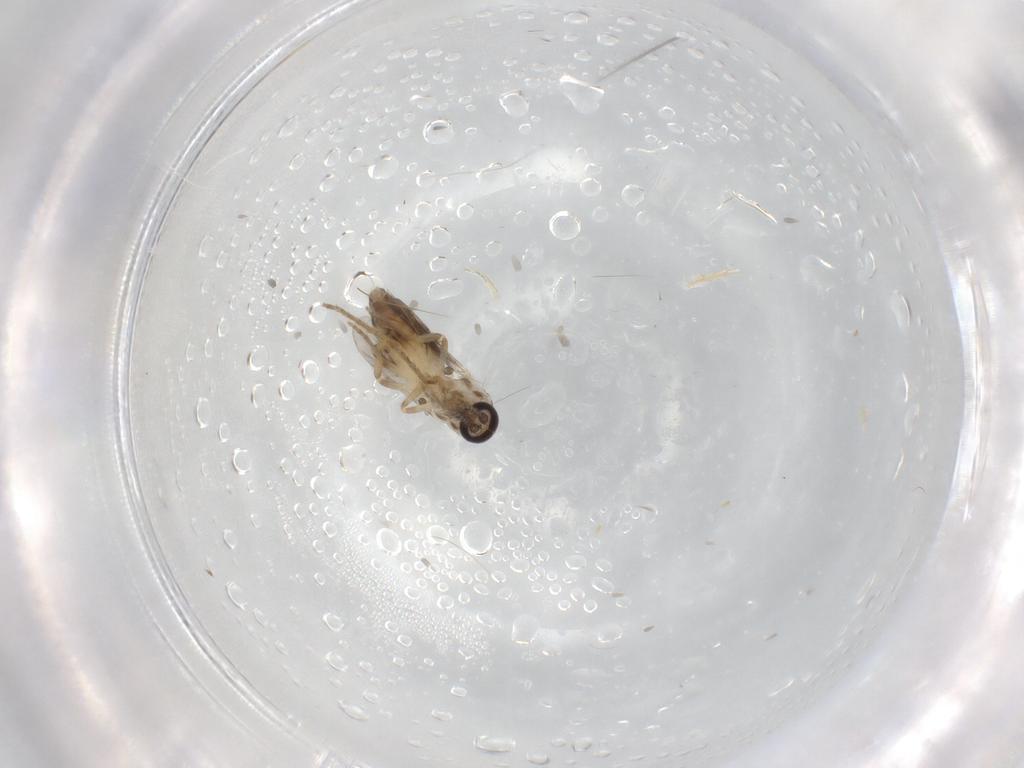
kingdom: Animalia
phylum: Arthropoda
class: Insecta
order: Diptera
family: Ceratopogonidae
